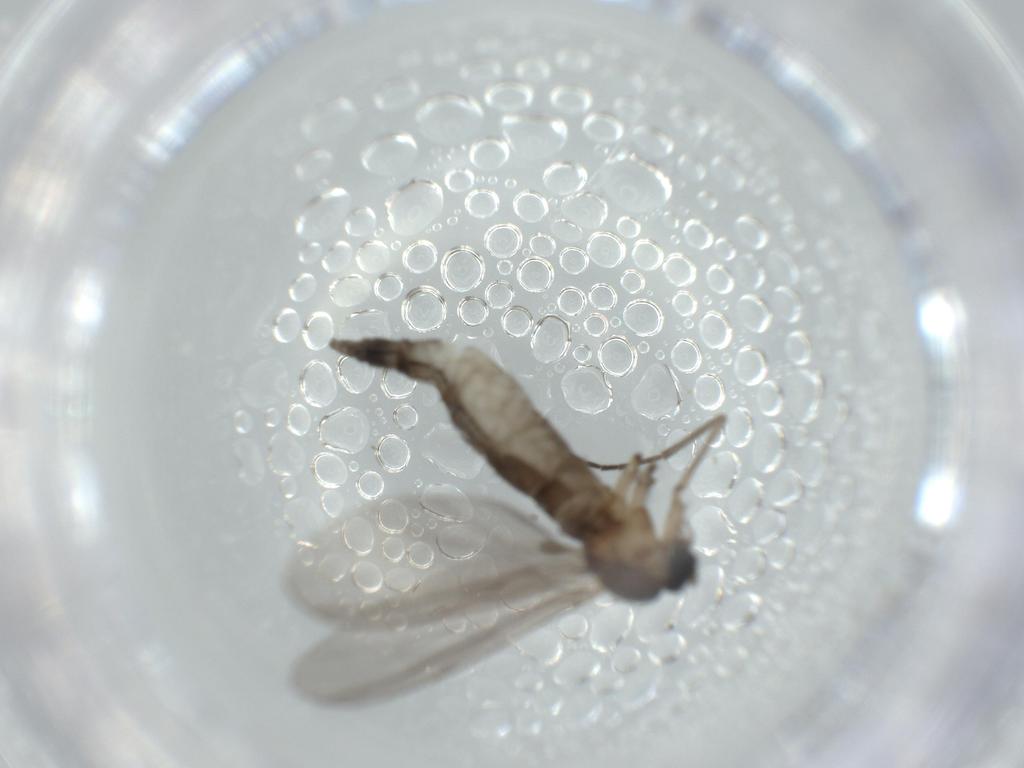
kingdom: Animalia
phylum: Arthropoda
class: Insecta
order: Diptera
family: Sciaridae
